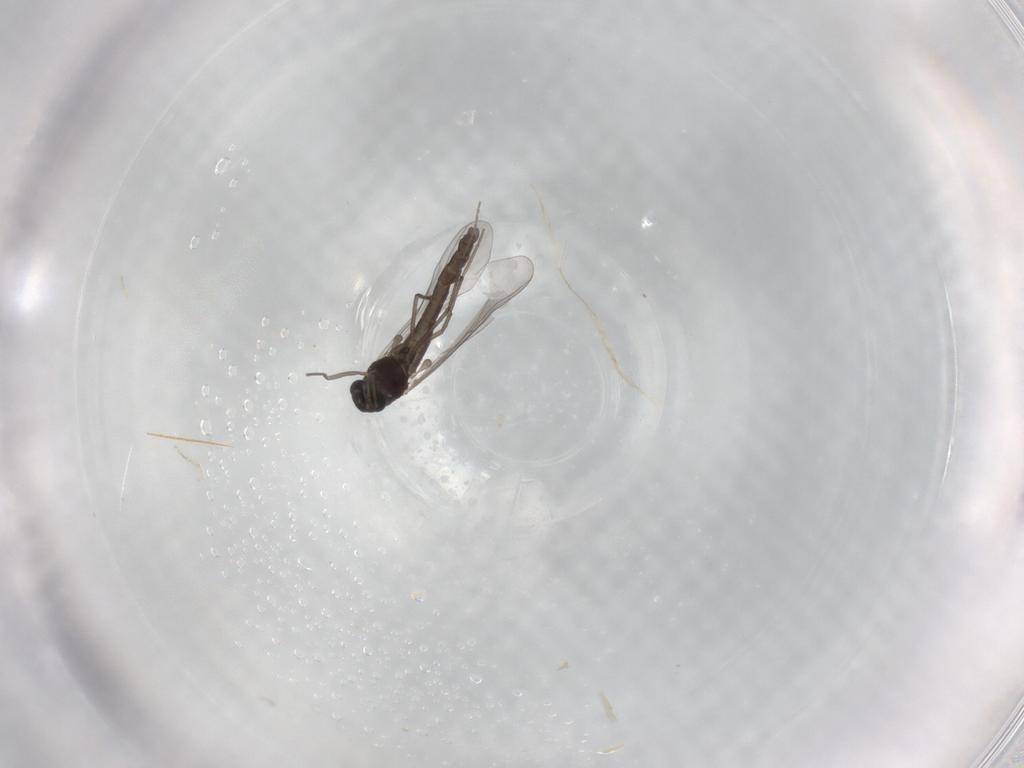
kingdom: Animalia
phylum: Arthropoda
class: Insecta
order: Diptera
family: Chironomidae
